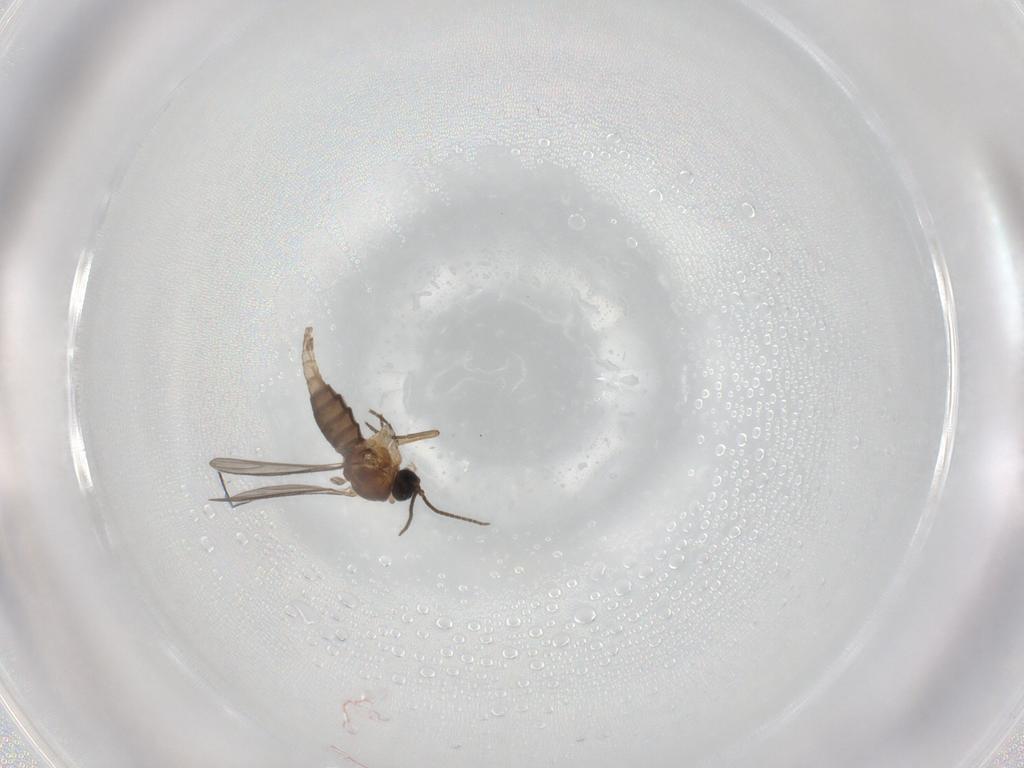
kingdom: Animalia
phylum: Arthropoda
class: Insecta
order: Diptera
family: Sciaridae
